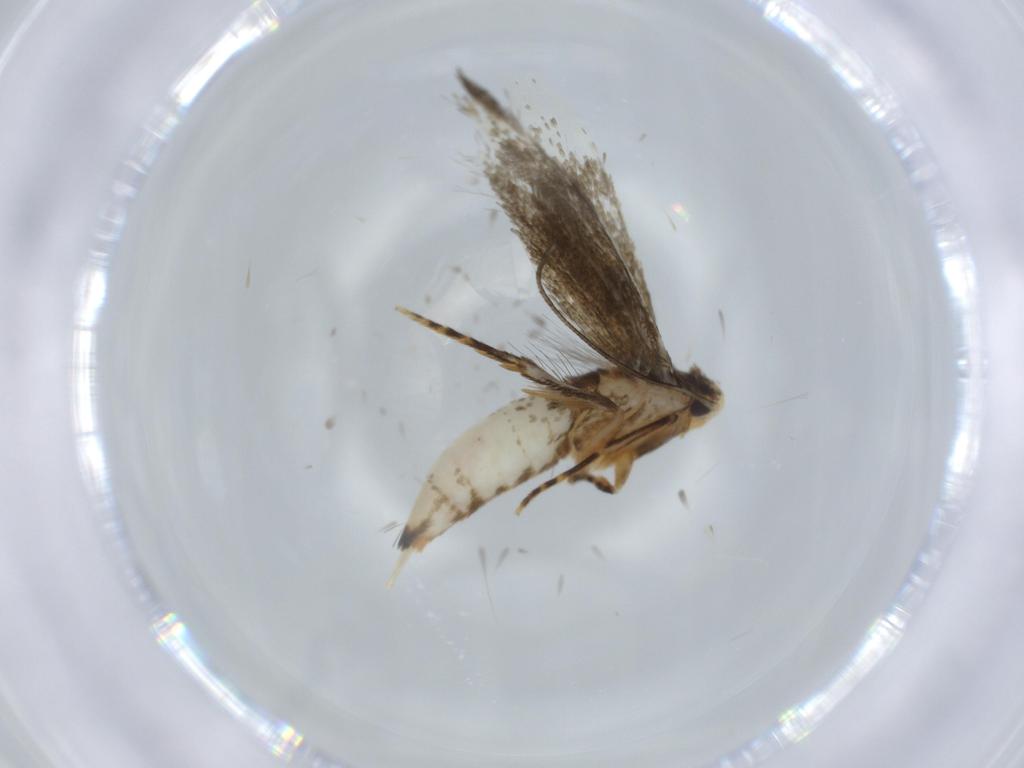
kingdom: Animalia
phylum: Arthropoda
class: Insecta
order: Lepidoptera
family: Tineidae
